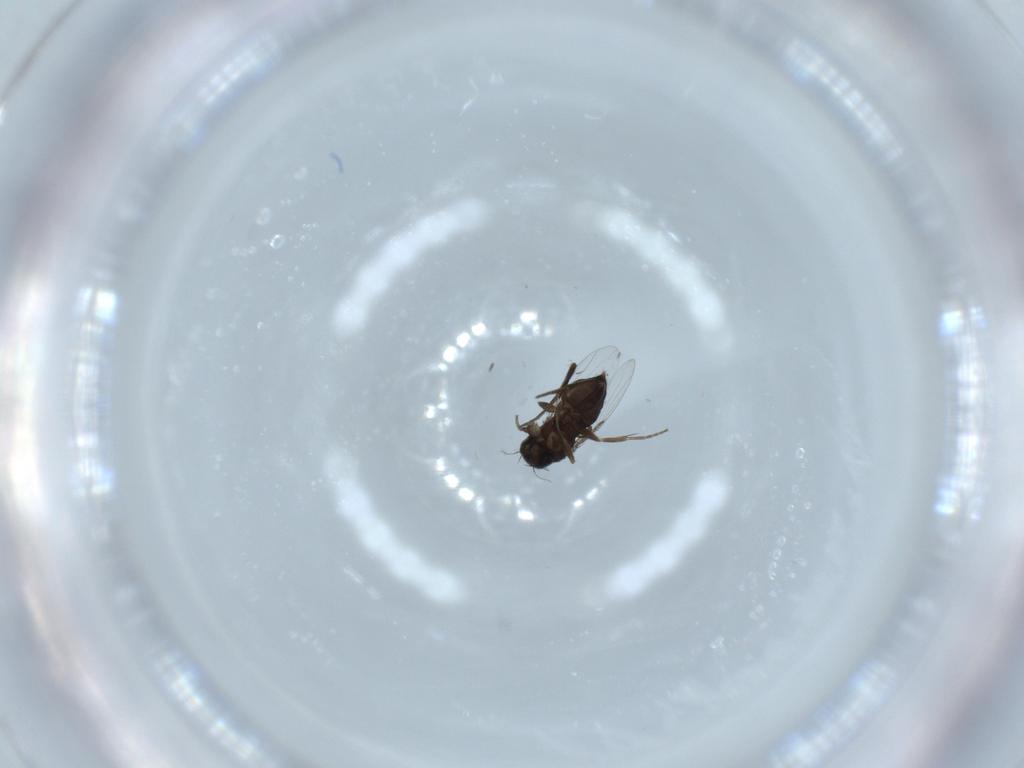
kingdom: Animalia
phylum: Arthropoda
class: Insecta
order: Diptera
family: Phoridae
